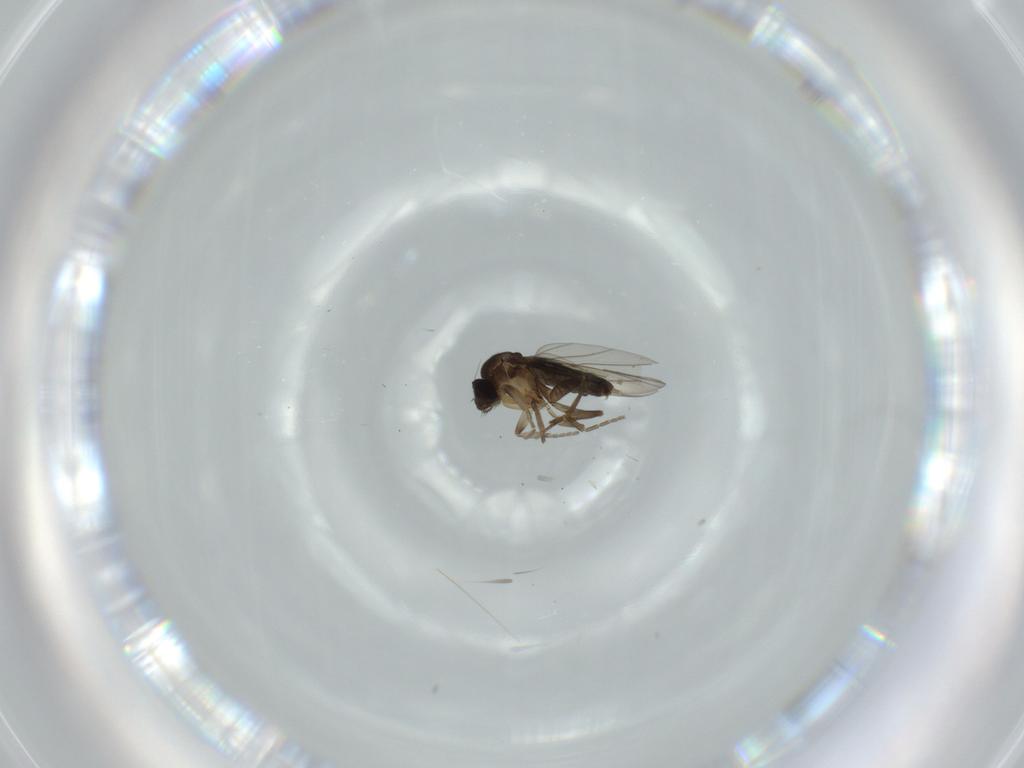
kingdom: Animalia
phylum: Arthropoda
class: Insecta
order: Diptera
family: Phoridae
